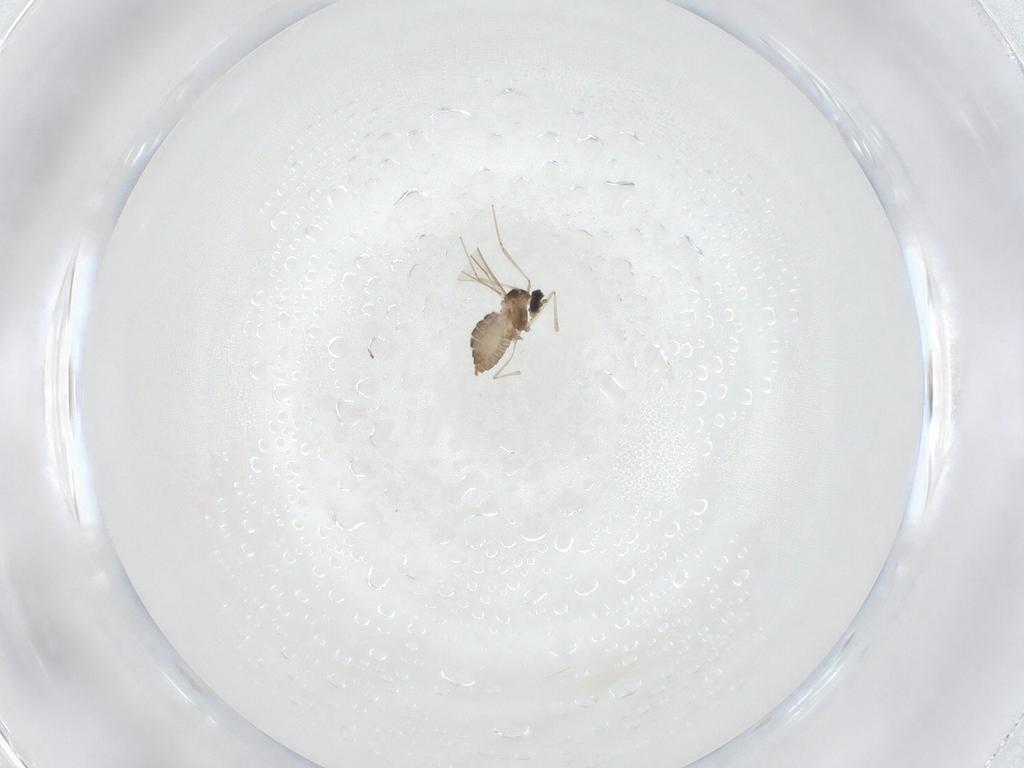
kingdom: Animalia
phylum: Arthropoda
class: Insecta
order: Diptera
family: Cecidomyiidae
